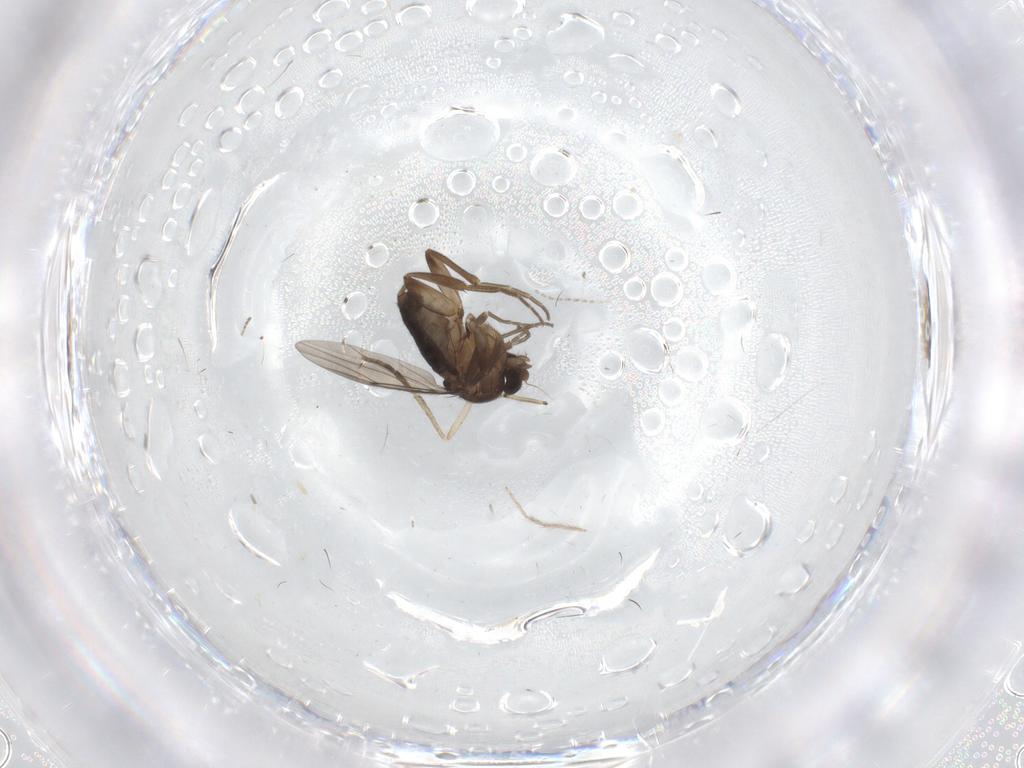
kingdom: Animalia
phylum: Arthropoda
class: Insecta
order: Diptera
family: Phoridae
